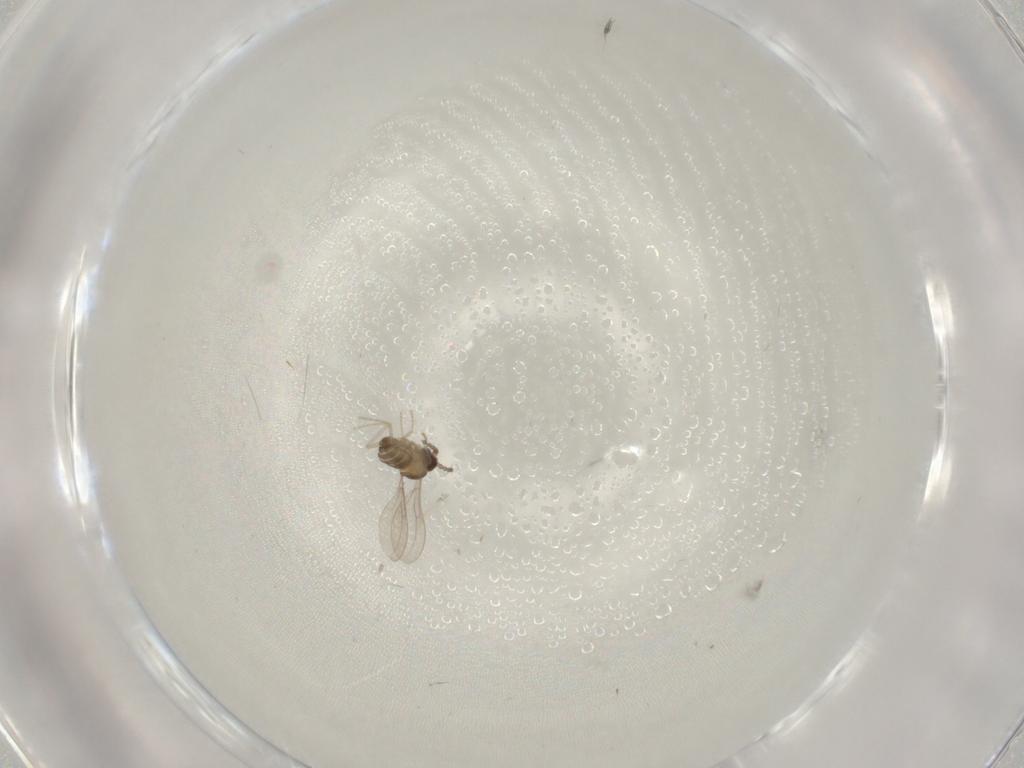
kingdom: Animalia
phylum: Arthropoda
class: Insecta
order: Diptera
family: Hybotidae
